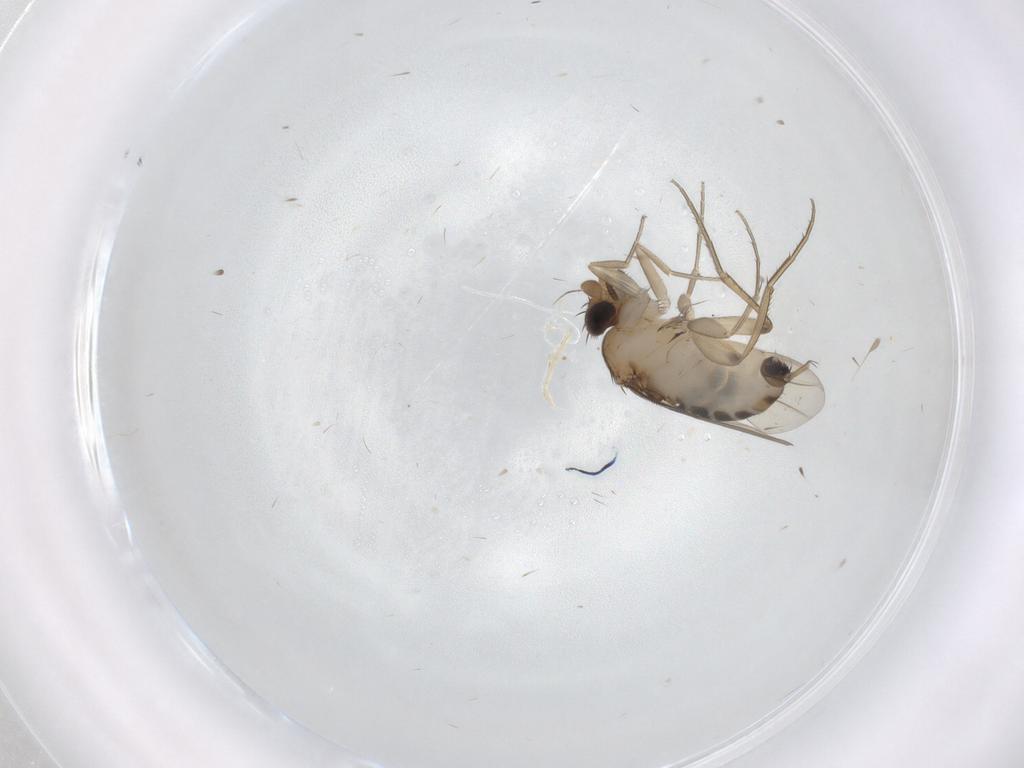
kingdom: Animalia
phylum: Arthropoda
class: Insecta
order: Diptera
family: Phoridae
